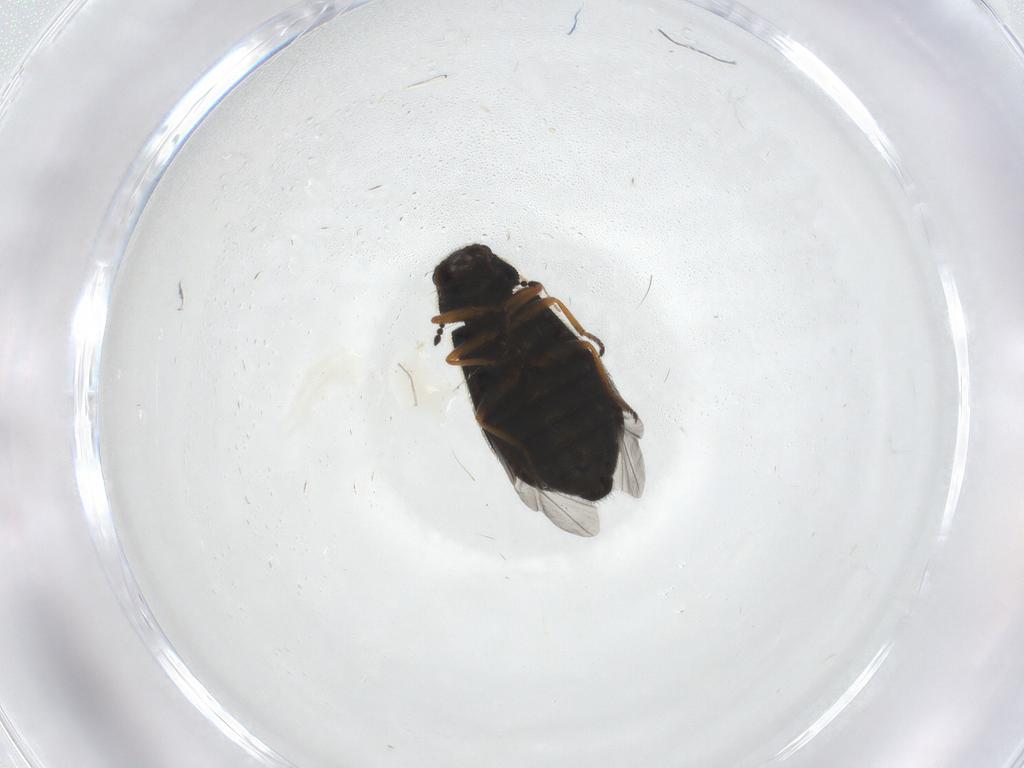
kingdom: Animalia
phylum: Arthropoda
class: Insecta
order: Coleoptera
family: Melyridae
